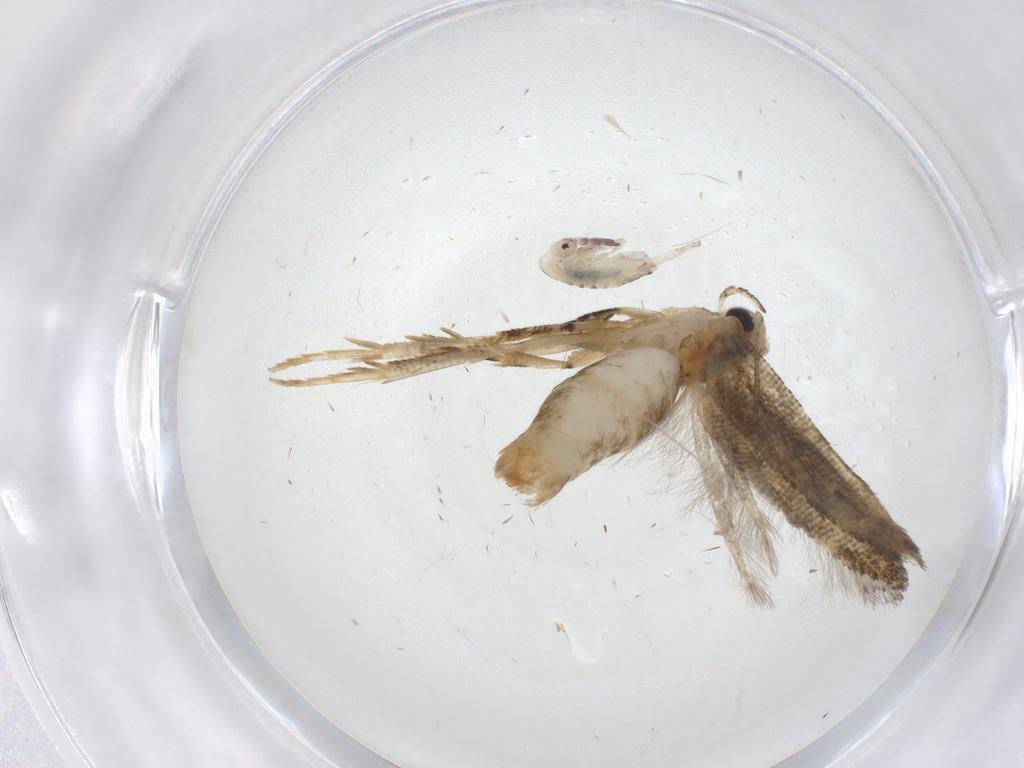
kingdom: Animalia
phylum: Arthropoda
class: Insecta
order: Lepidoptera
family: Gelechiidae
